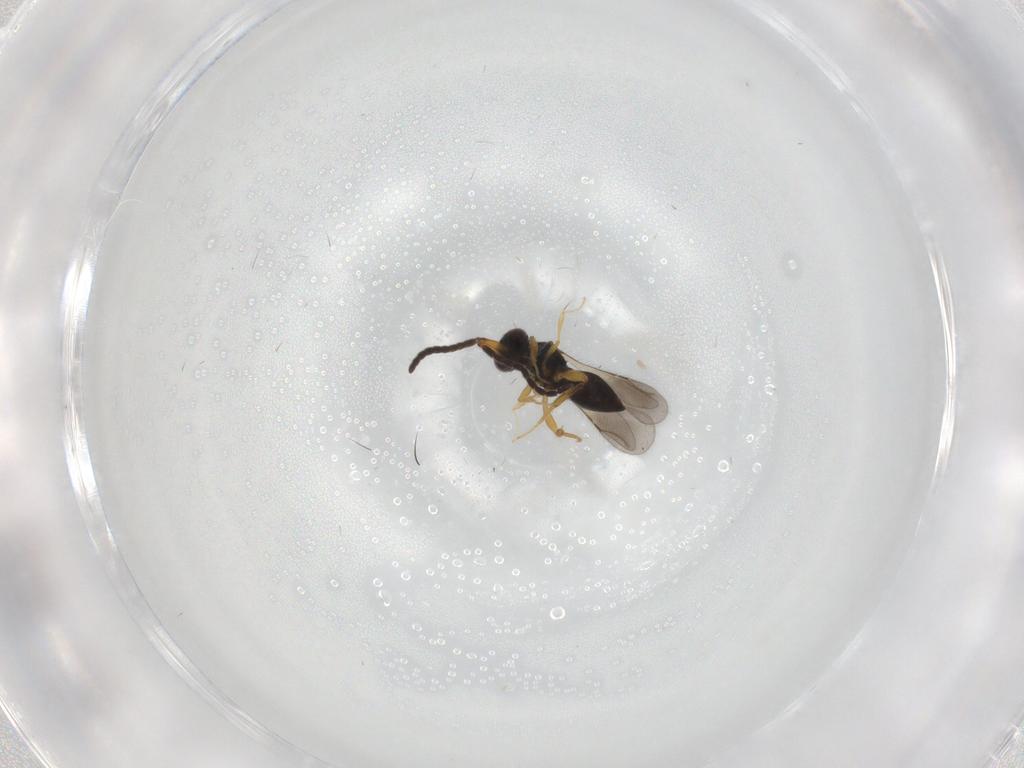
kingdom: Animalia
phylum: Arthropoda
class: Insecta
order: Hymenoptera
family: Ceraphronidae
